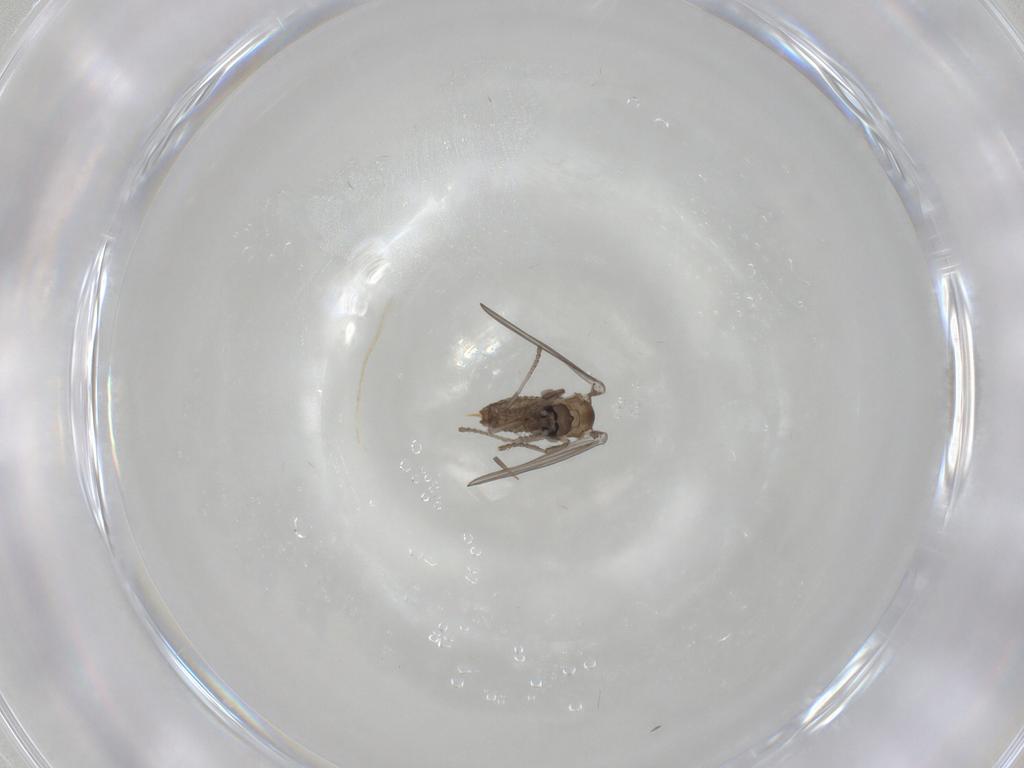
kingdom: Animalia
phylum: Arthropoda
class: Insecta
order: Diptera
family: Psychodidae
